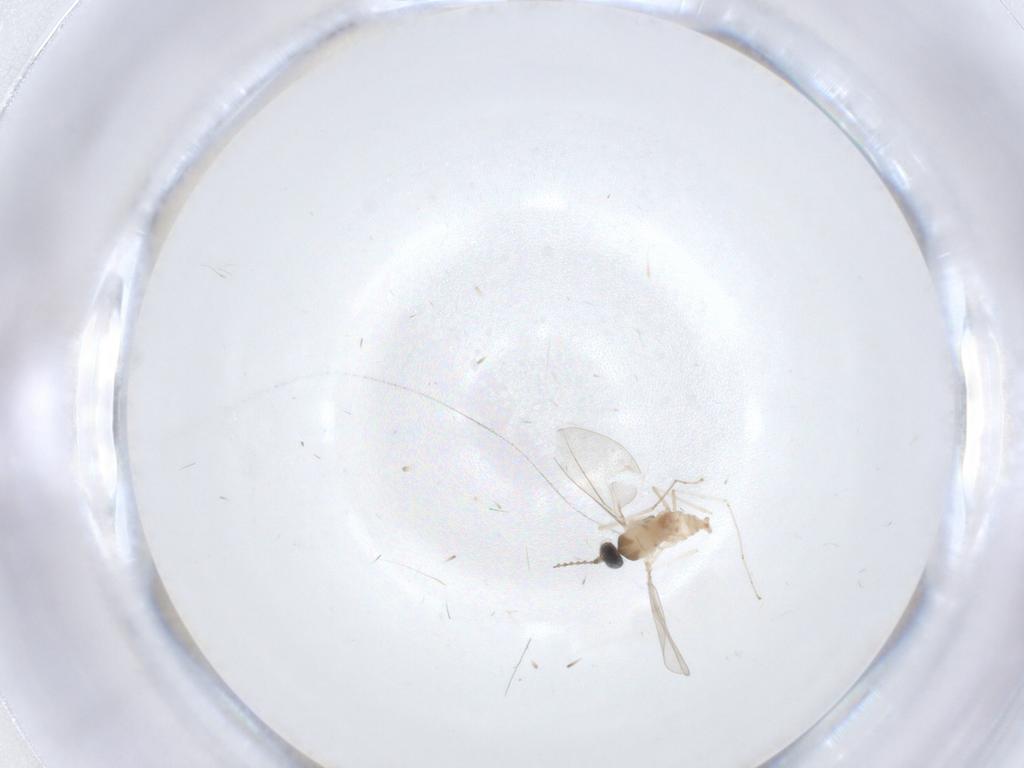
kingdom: Animalia
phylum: Arthropoda
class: Insecta
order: Diptera
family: Cecidomyiidae
